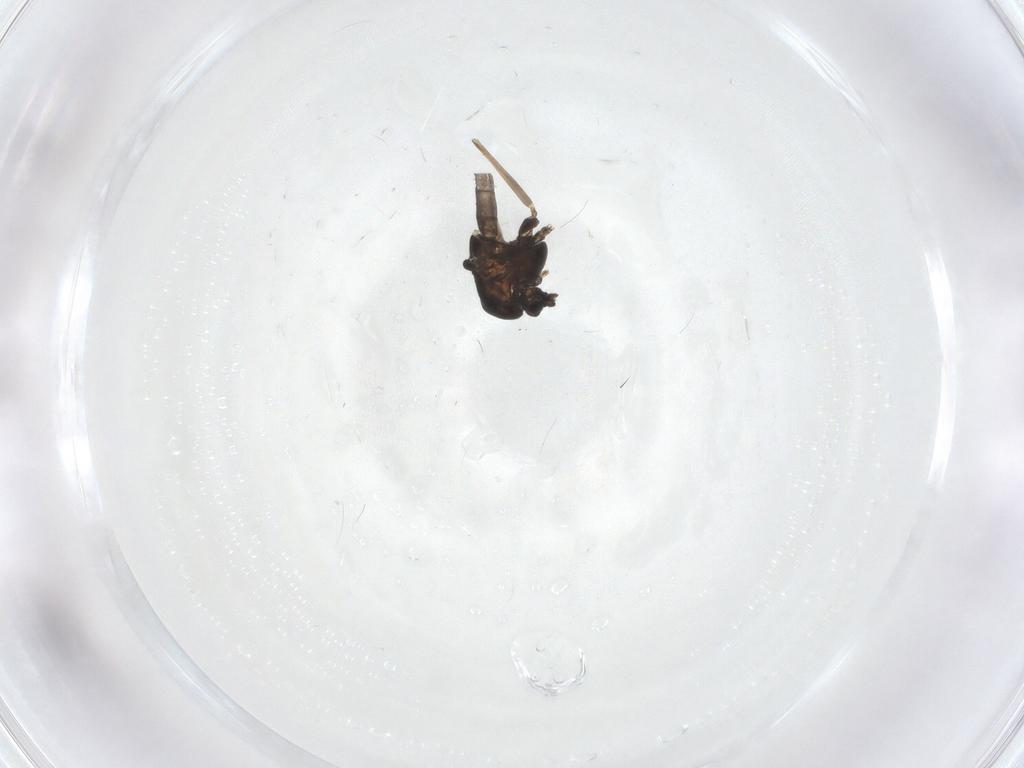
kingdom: Animalia
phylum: Arthropoda
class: Insecta
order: Diptera
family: Chironomidae
